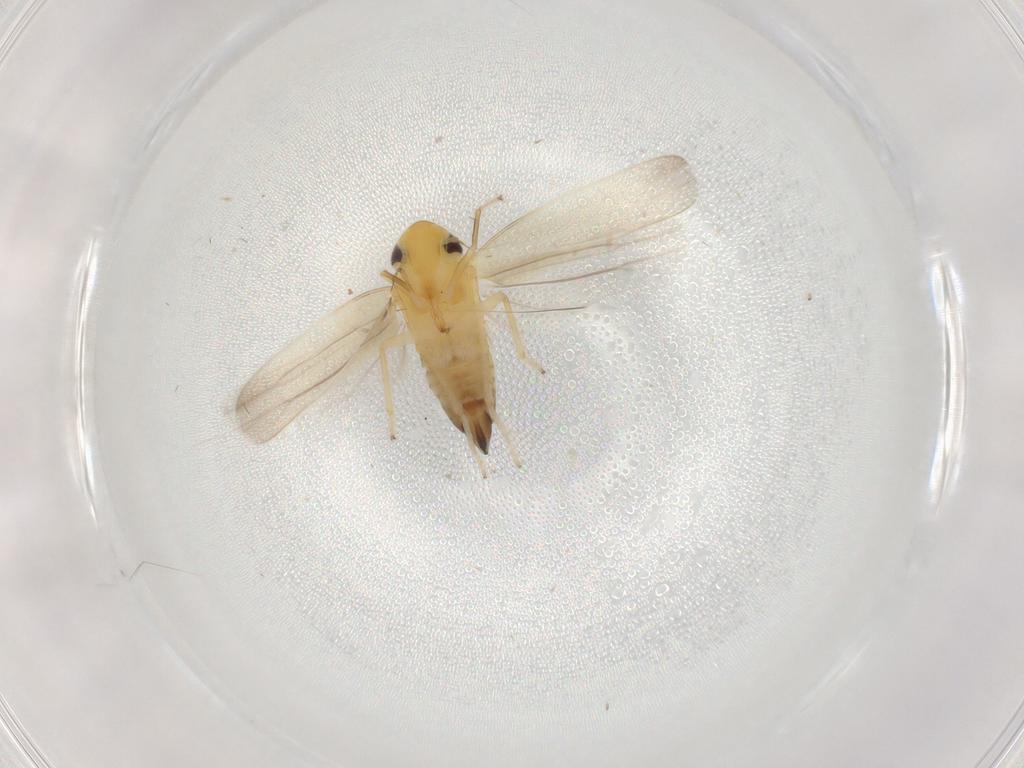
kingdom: Animalia
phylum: Arthropoda
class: Insecta
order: Hemiptera
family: Cicadellidae
